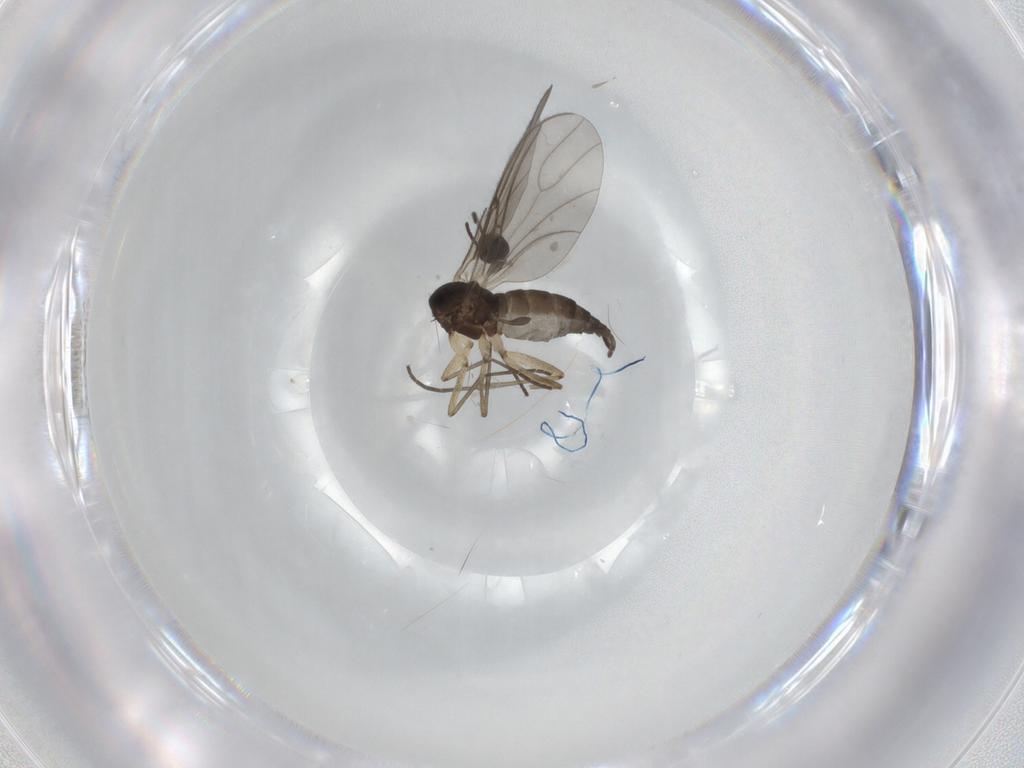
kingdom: Animalia
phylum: Arthropoda
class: Insecta
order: Diptera
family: Sciaridae
